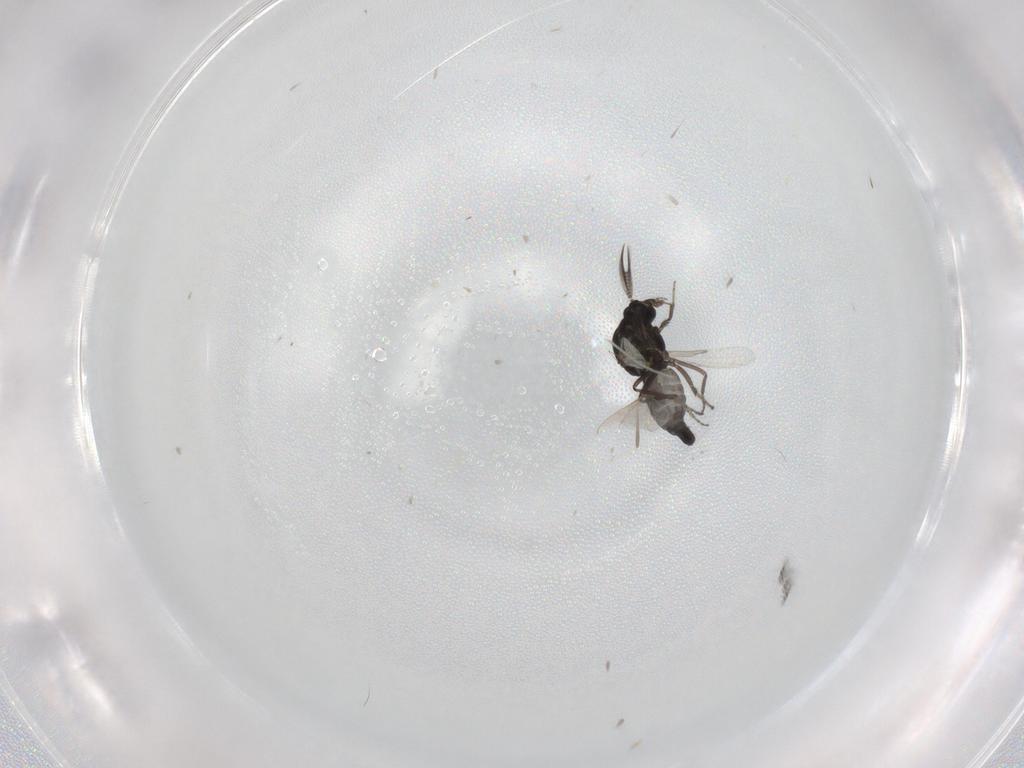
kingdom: Animalia
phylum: Arthropoda
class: Insecta
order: Diptera
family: Ceratopogonidae
